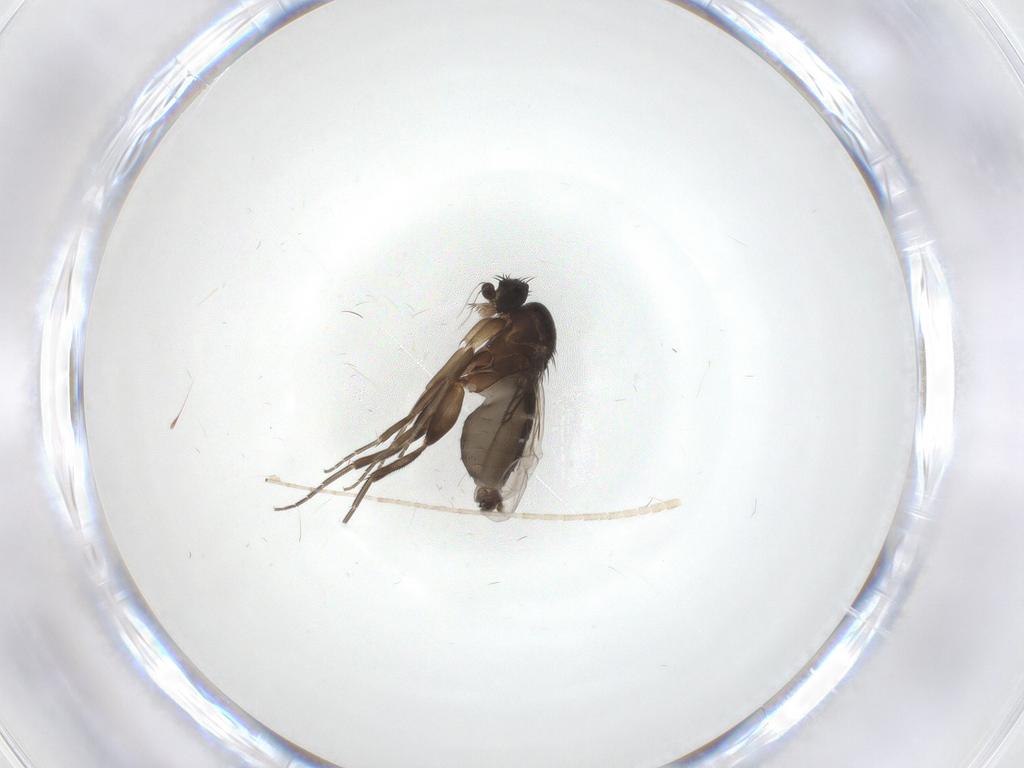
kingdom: Animalia
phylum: Arthropoda
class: Insecta
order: Diptera
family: Phoridae
